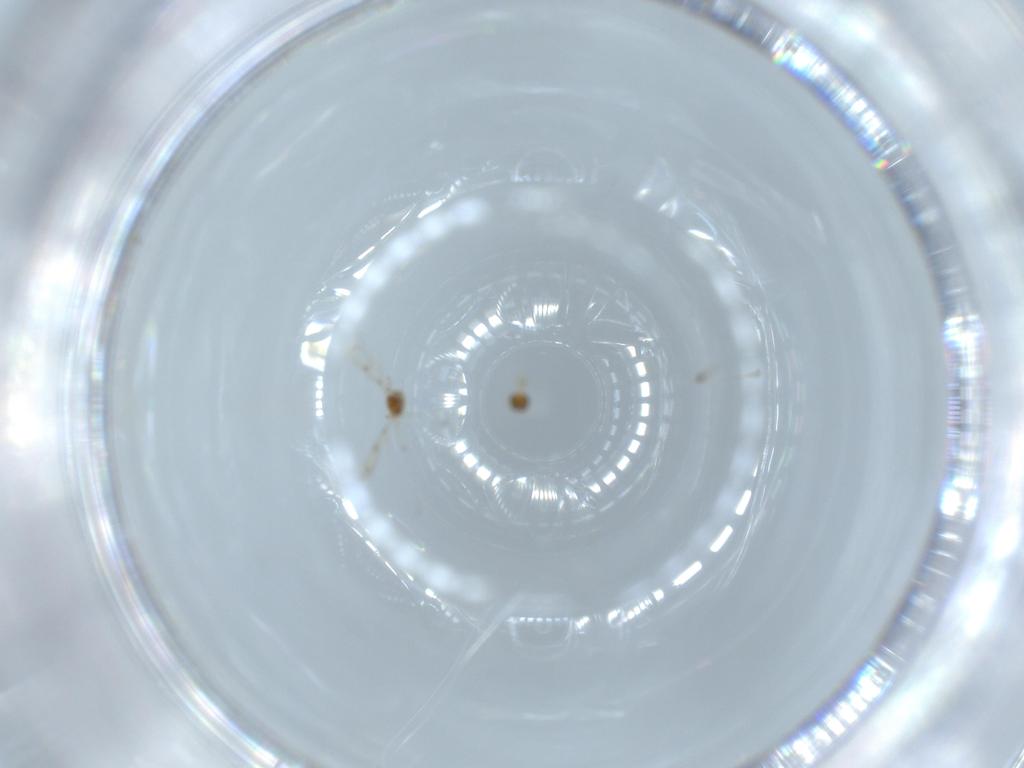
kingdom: Animalia
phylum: Arthropoda
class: Insecta
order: Hymenoptera
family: Trichogrammatidae
